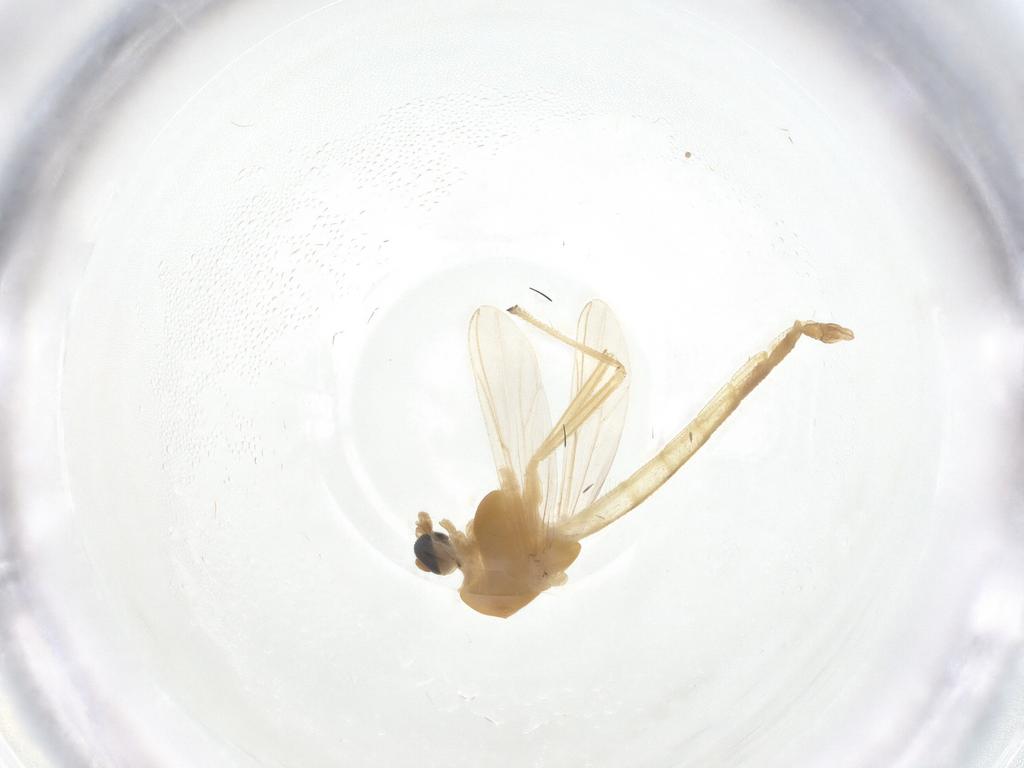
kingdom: Animalia
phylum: Arthropoda
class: Insecta
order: Diptera
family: Chironomidae
